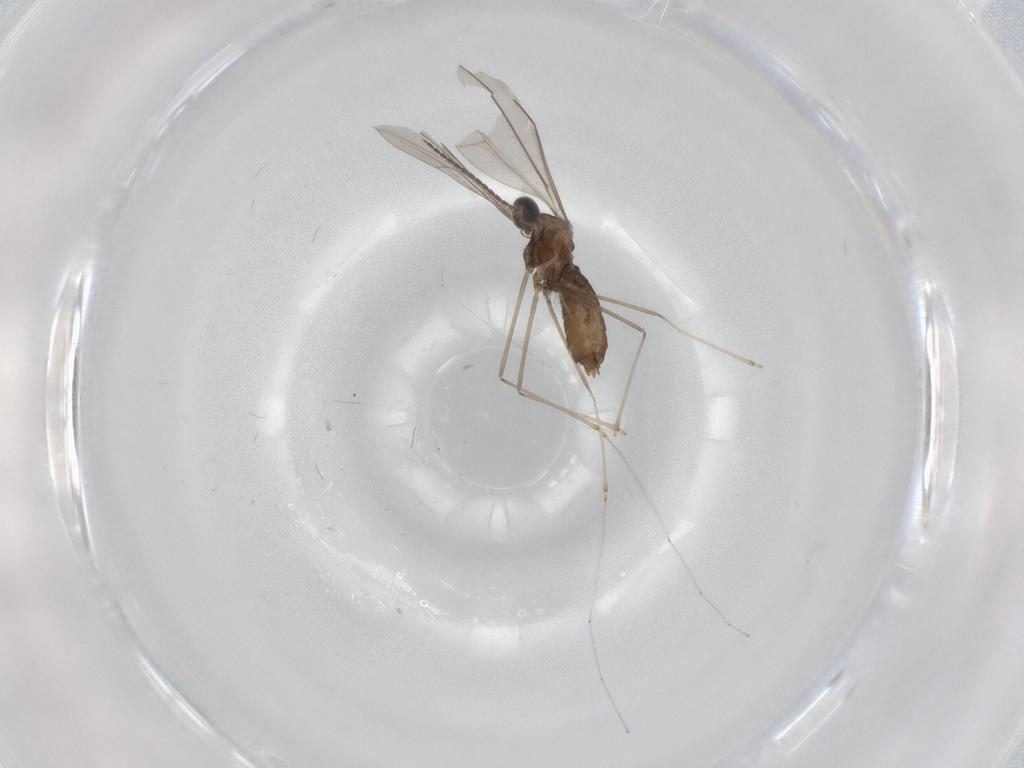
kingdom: Animalia
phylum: Arthropoda
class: Insecta
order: Diptera
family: Cecidomyiidae
